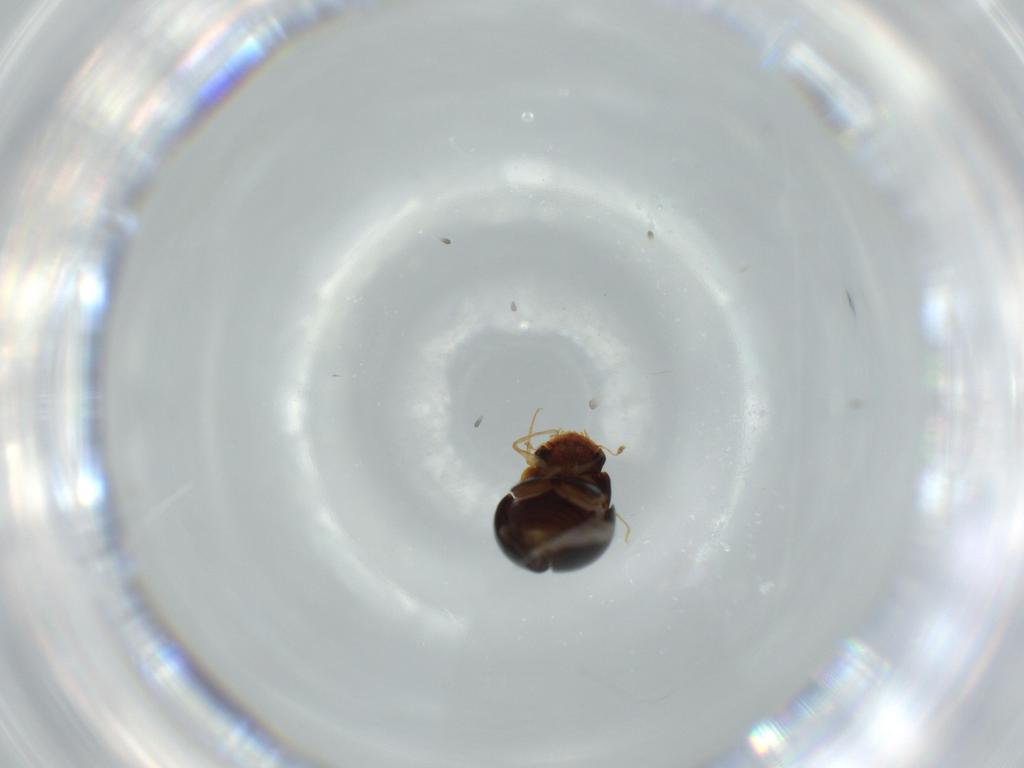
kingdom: Animalia
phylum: Arthropoda
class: Insecta
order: Coleoptera
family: Clambidae
